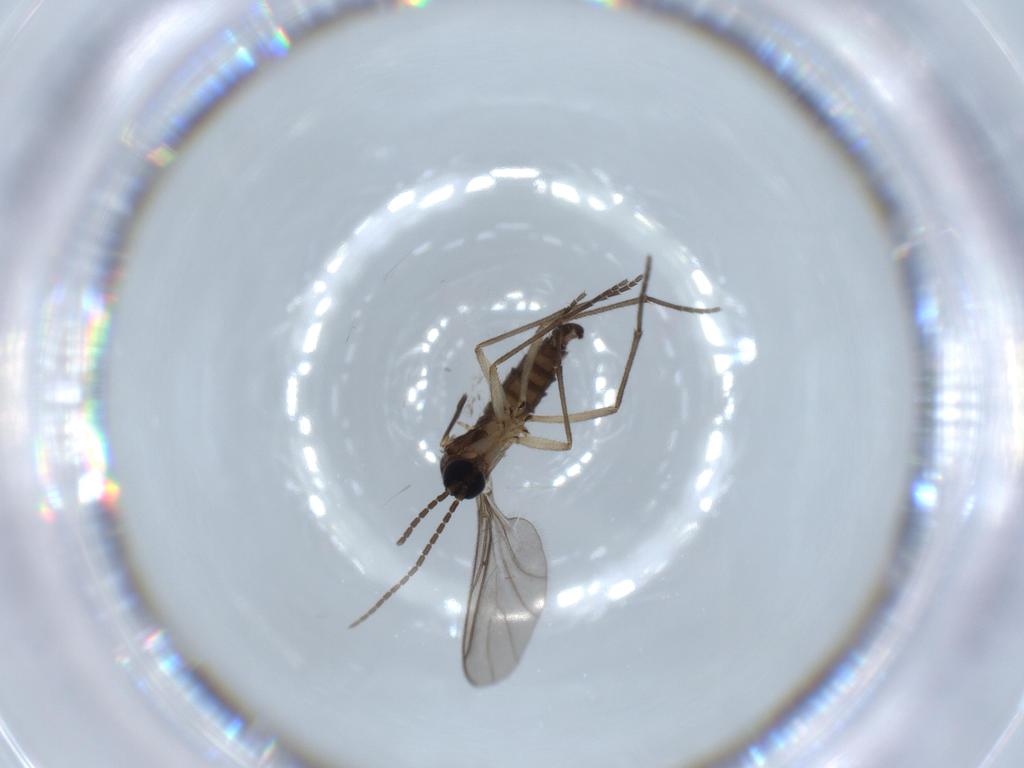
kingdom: Animalia
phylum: Arthropoda
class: Insecta
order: Diptera
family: Sciaridae
